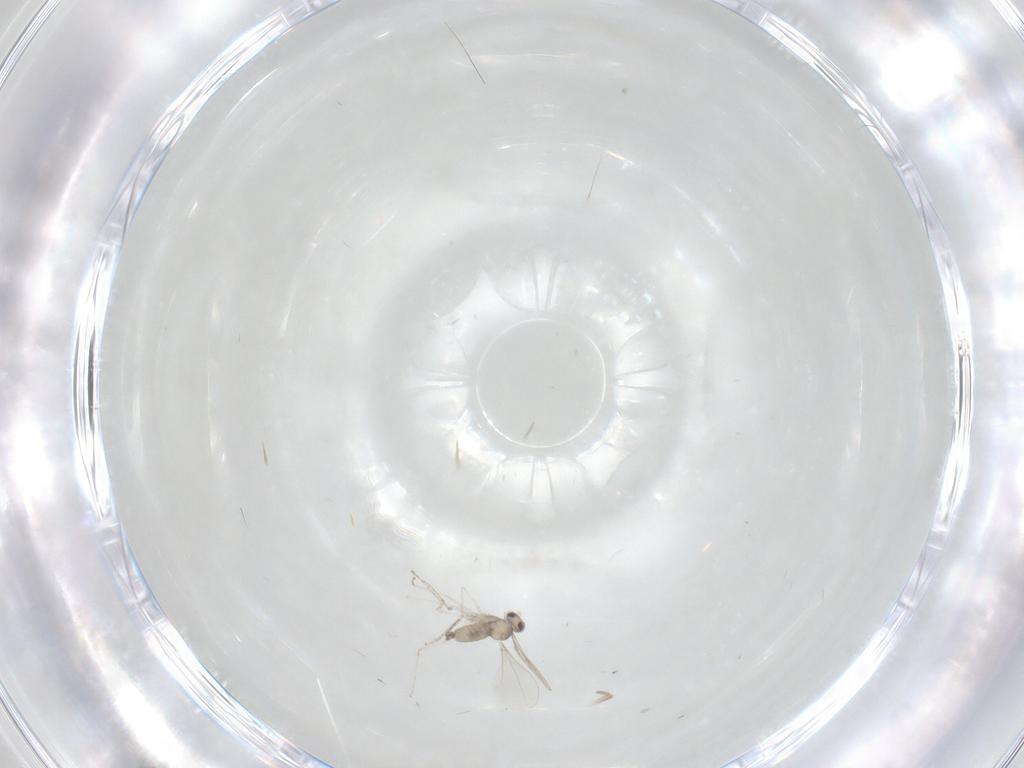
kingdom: Animalia
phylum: Arthropoda
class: Insecta
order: Diptera
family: Cecidomyiidae
